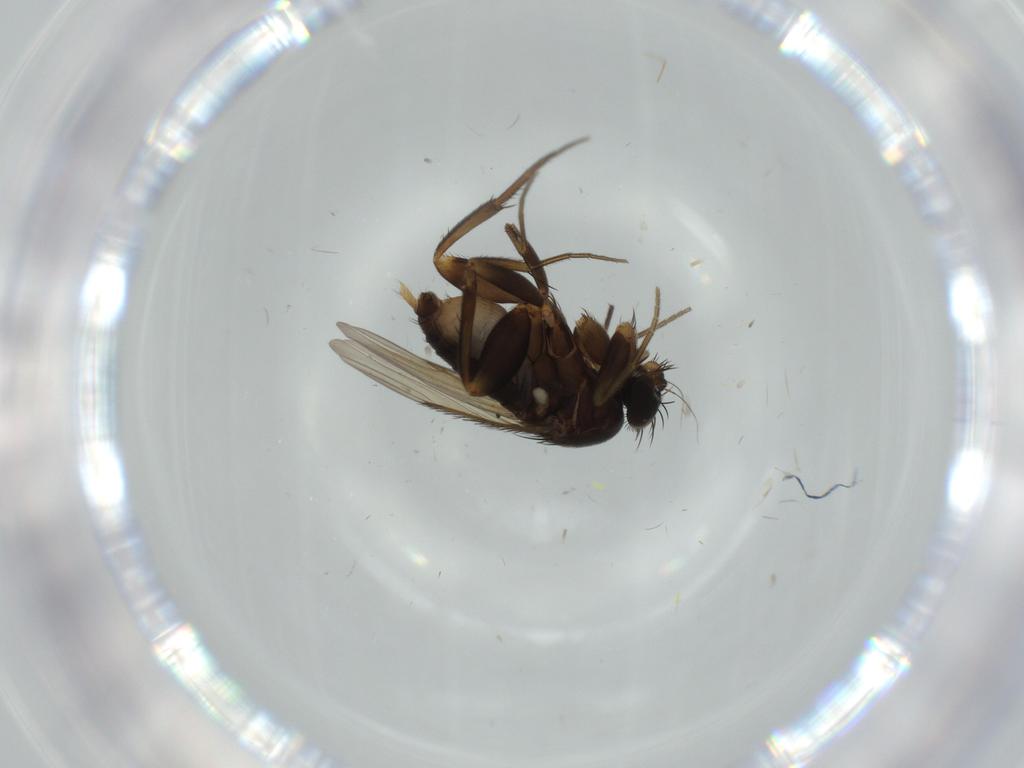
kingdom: Animalia
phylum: Arthropoda
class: Insecta
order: Diptera
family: Phoridae
